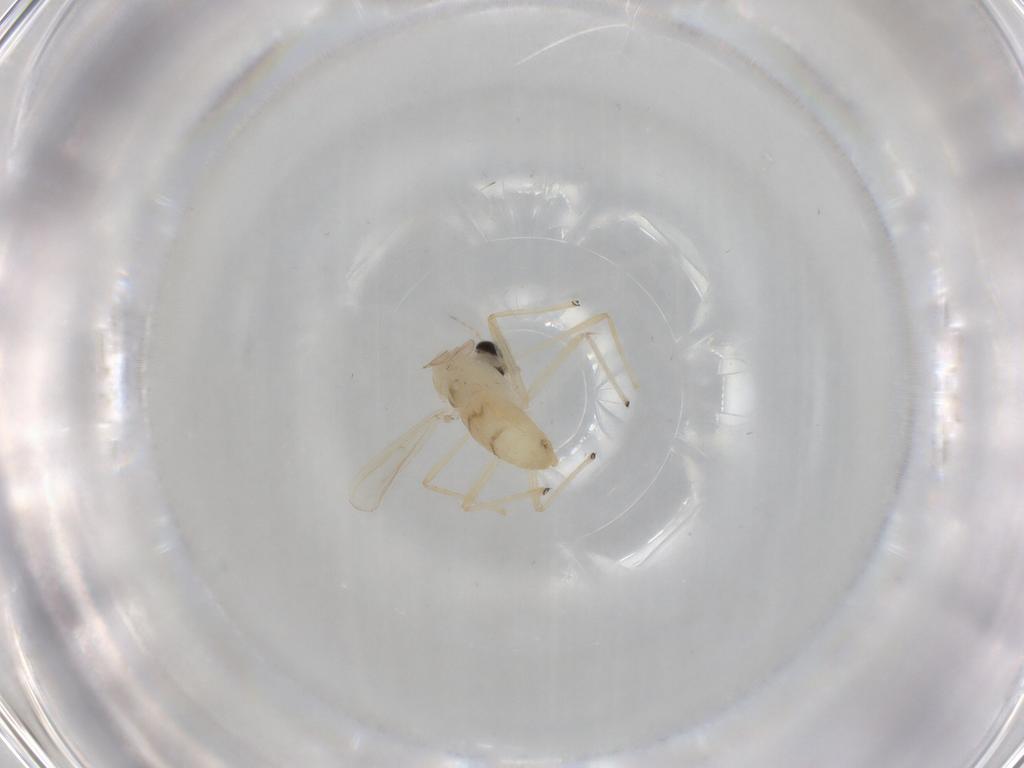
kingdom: Animalia
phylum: Arthropoda
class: Insecta
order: Diptera
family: Chironomidae
